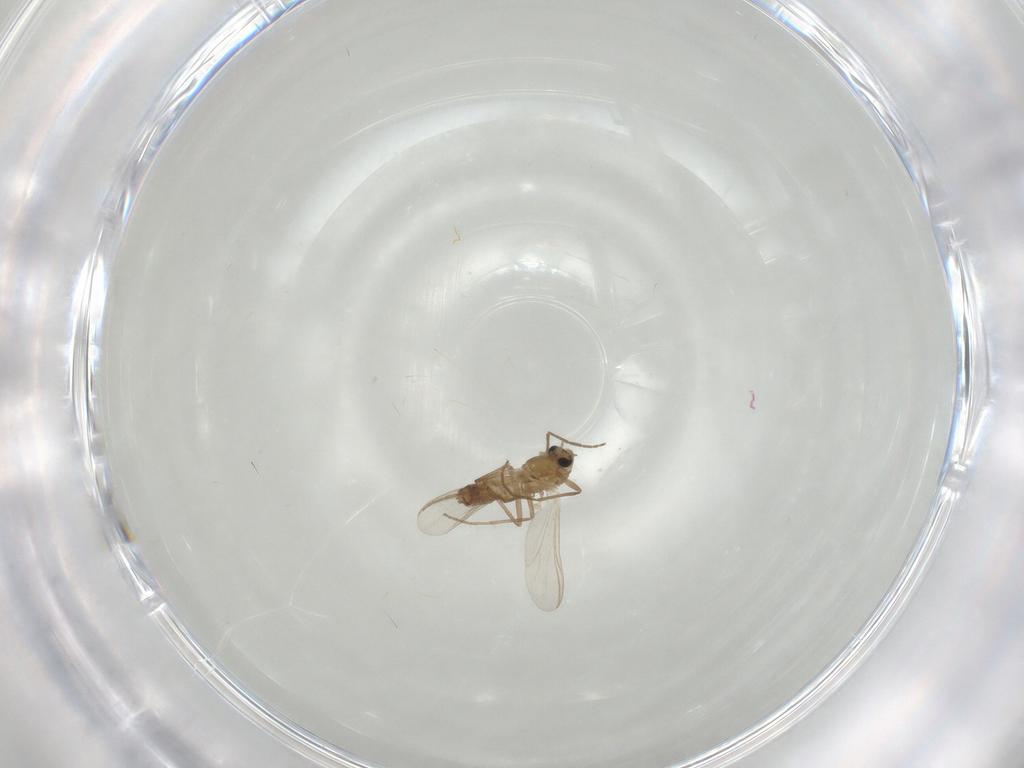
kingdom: Animalia
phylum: Arthropoda
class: Insecta
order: Diptera
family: Chironomidae
